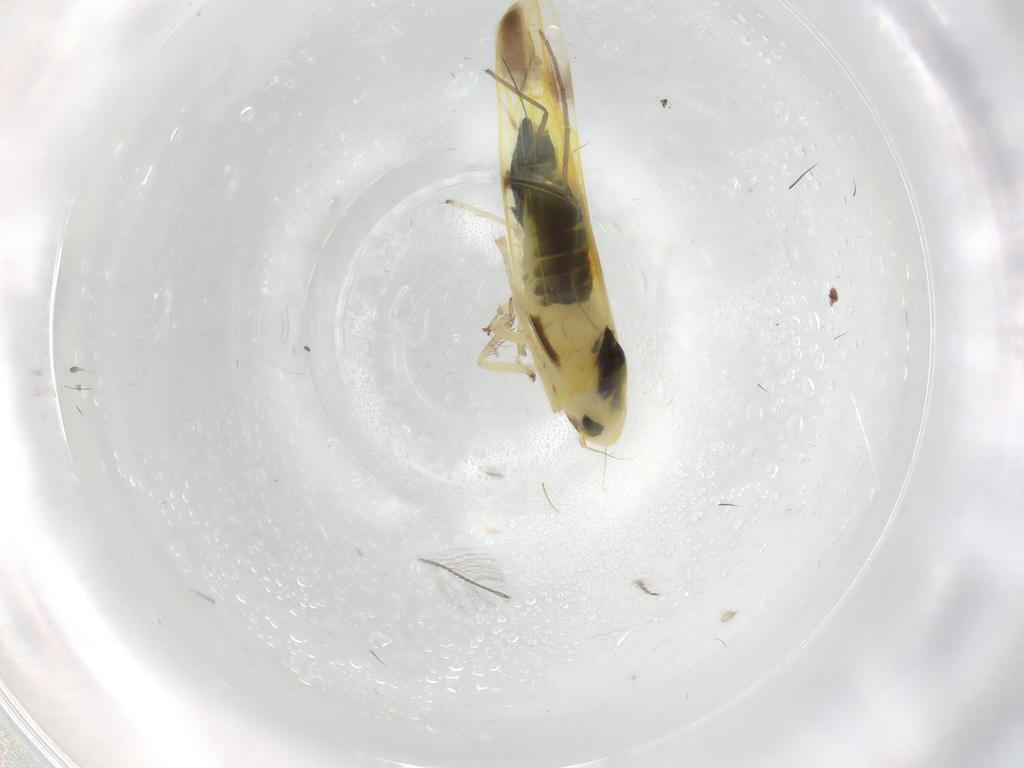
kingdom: Animalia
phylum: Arthropoda
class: Insecta
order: Hemiptera
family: Cicadellidae
